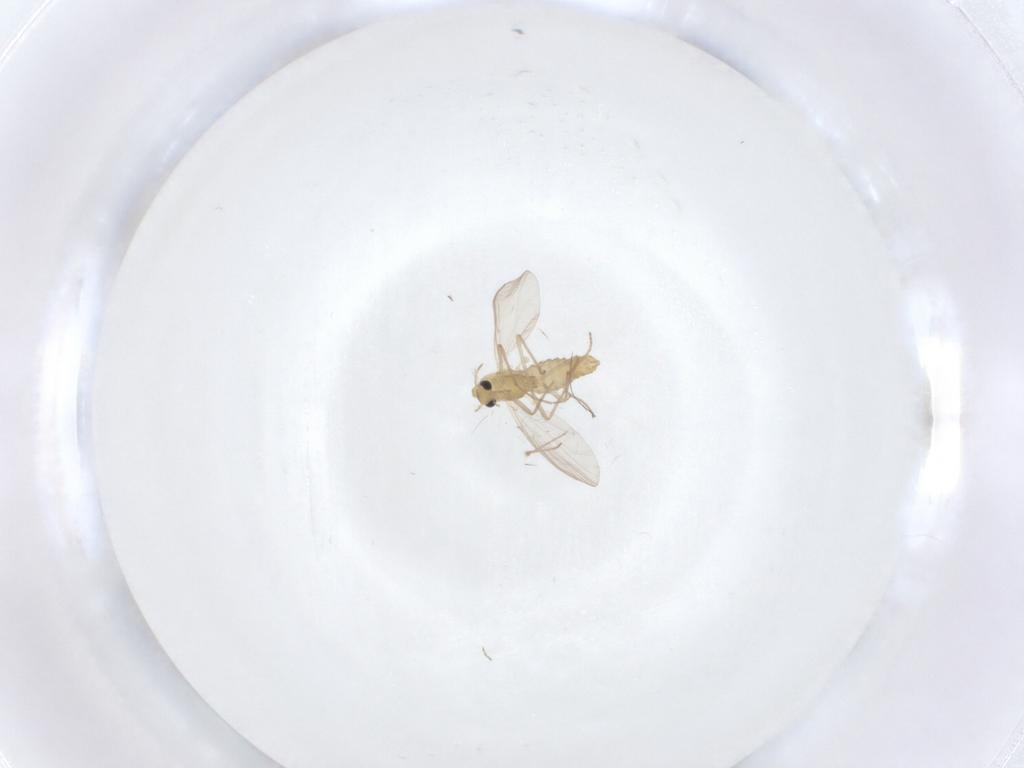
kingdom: Animalia
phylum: Arthropoda
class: Insecta
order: Diptera
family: Chironomidae
